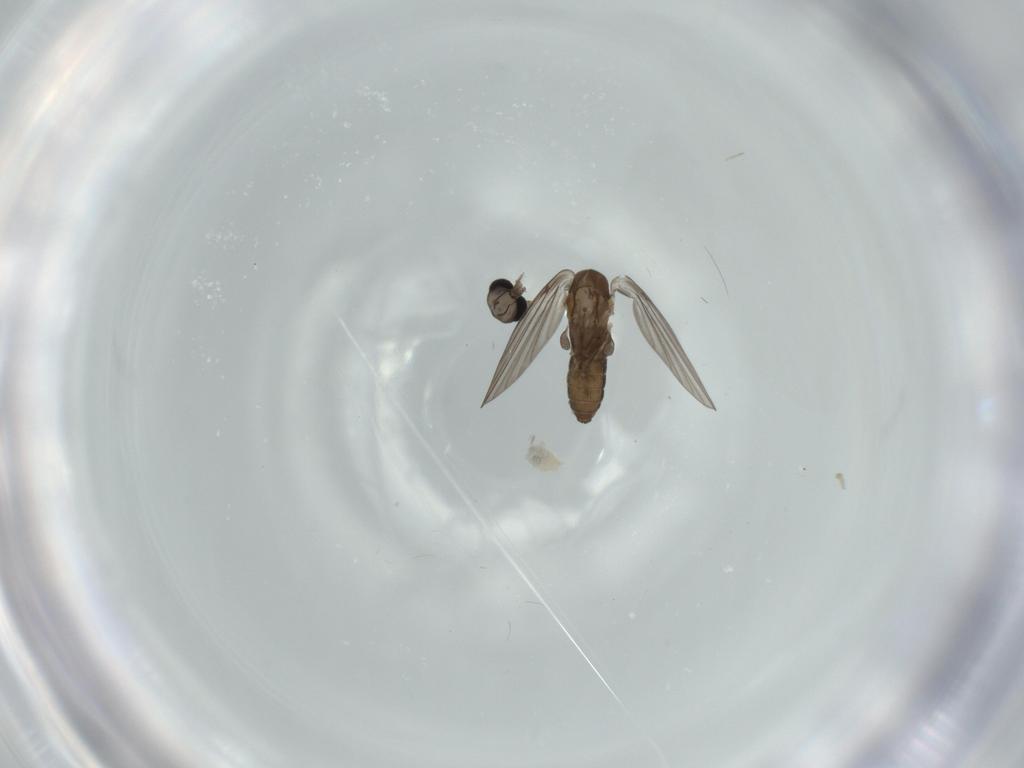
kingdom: Animalia
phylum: Arthropoda
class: Insecta
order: Diptera
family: Psychodidae
